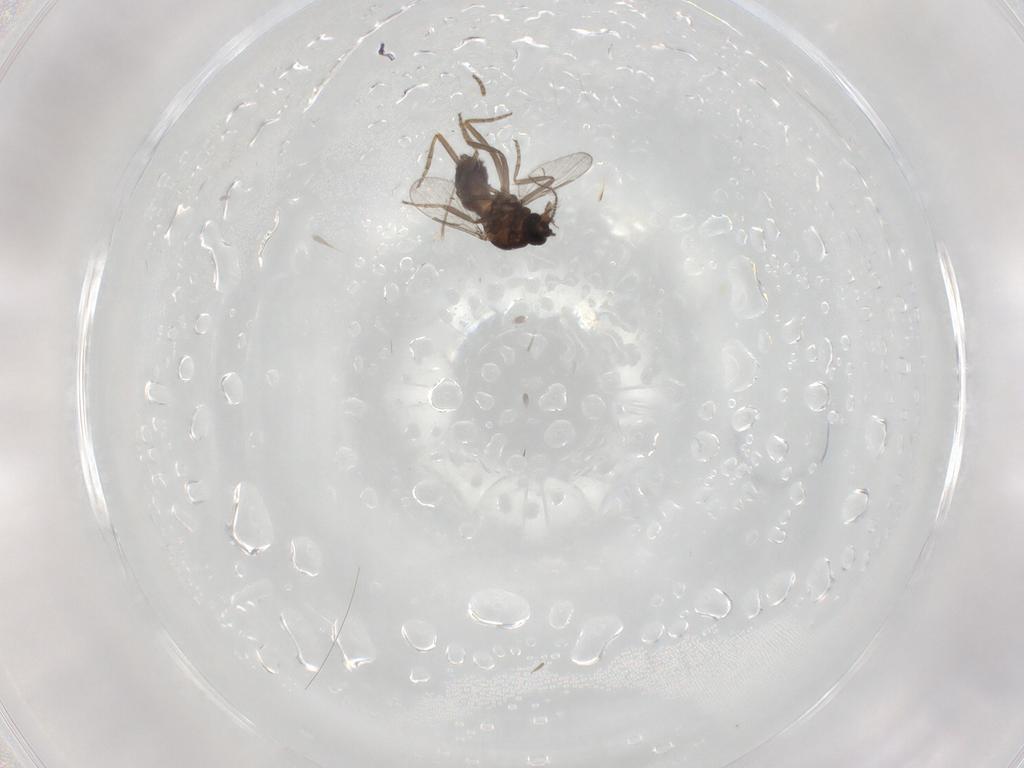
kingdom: Animalia
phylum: Arthropoda
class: Insecta
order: Diptera
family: Ceratopogonidae
